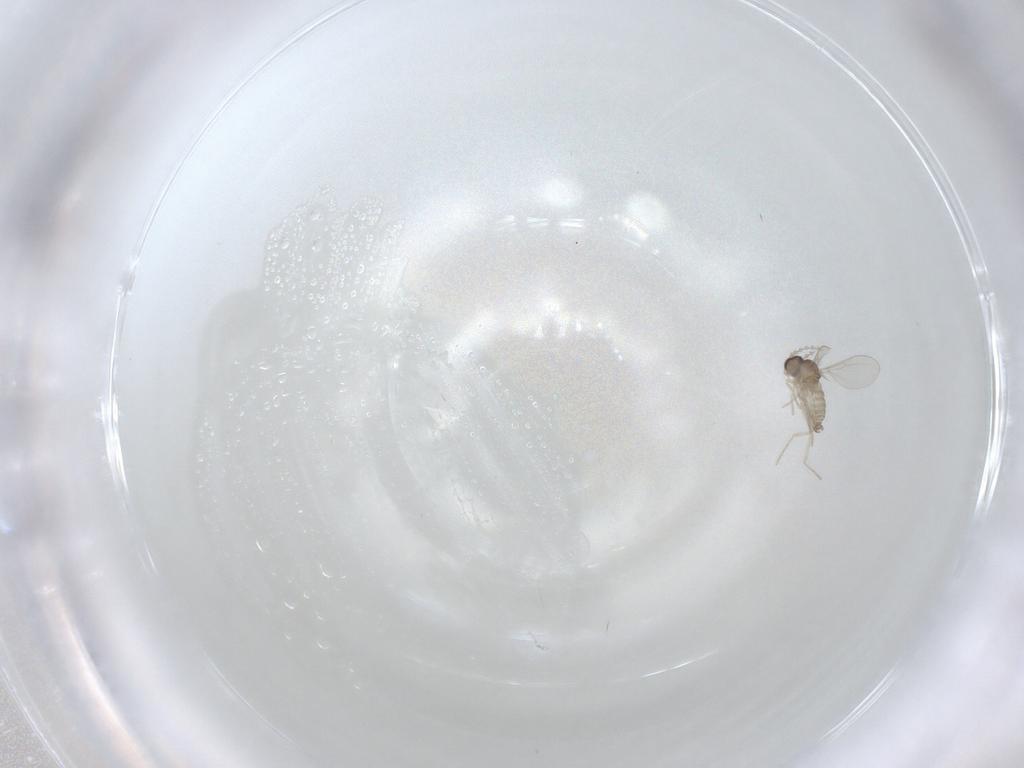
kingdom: Animalia
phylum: Arthropoda
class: Insecta
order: Diptera
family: Cecidomyiidae
